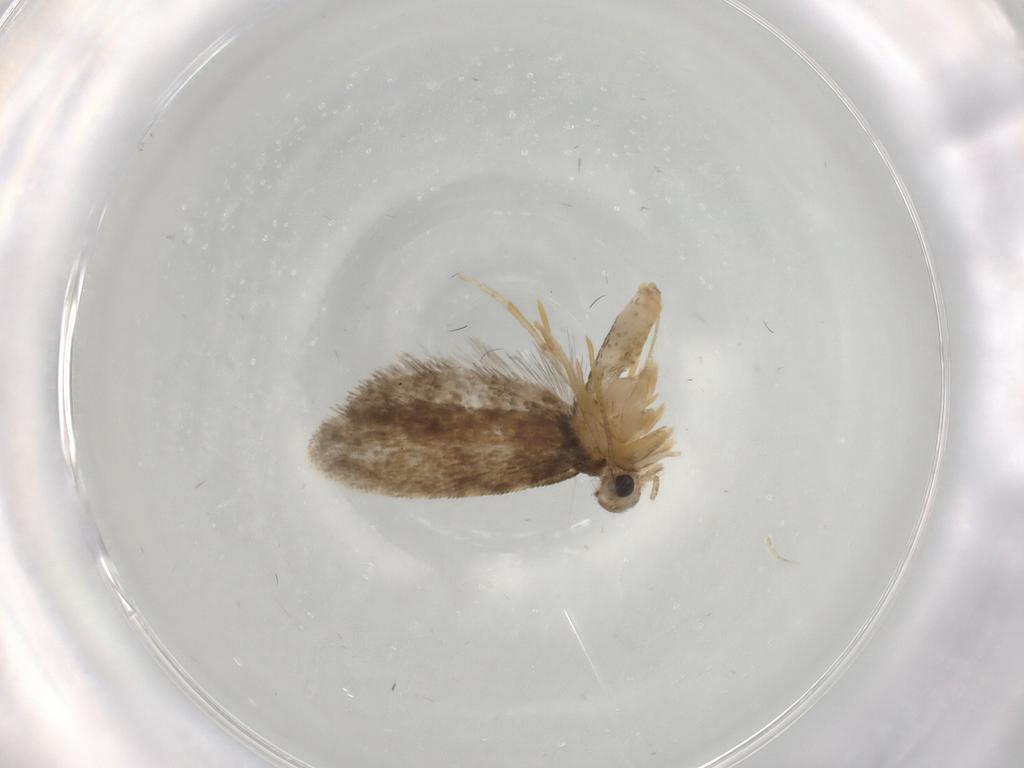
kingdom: Animalia
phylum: Arthropoda
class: Insecta
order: Lepidoptera
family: Psychidae
